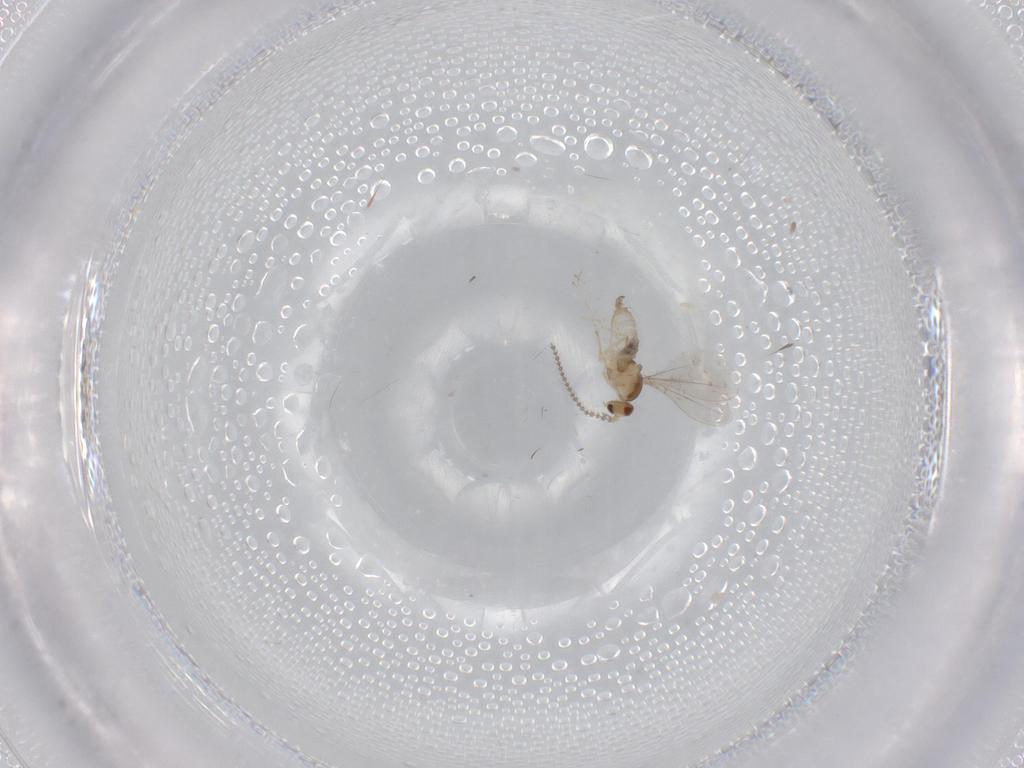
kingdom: Animalia
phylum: Arthropoda
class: Insecta
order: Diptera
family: Cecidomyiidae
